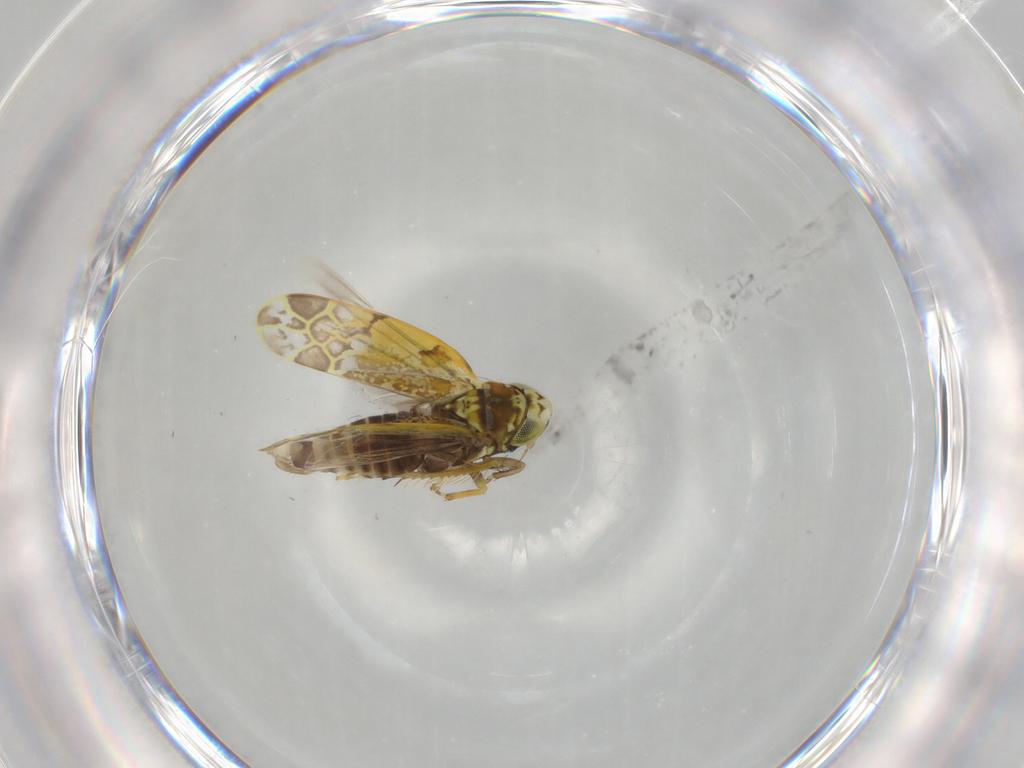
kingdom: Animalia
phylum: Arthropoda
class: Insecta
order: Hemiptera
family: Cicadellidae
